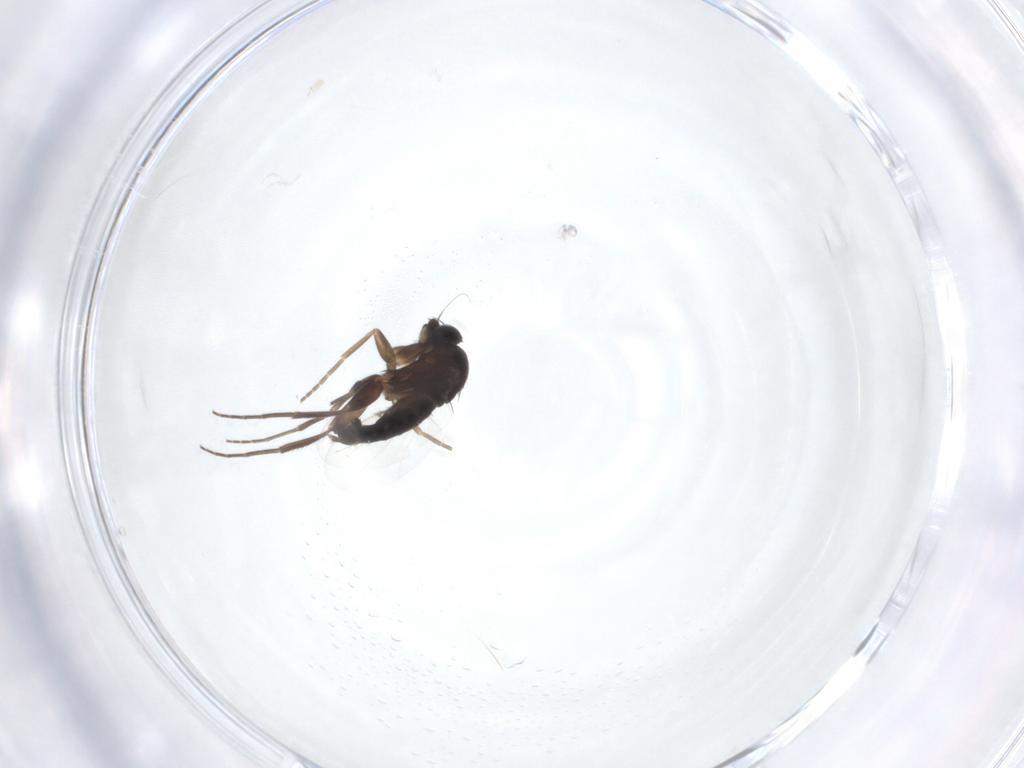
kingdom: Animalia
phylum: Arthropoda
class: Insecta
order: Diptera
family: Phoridae
